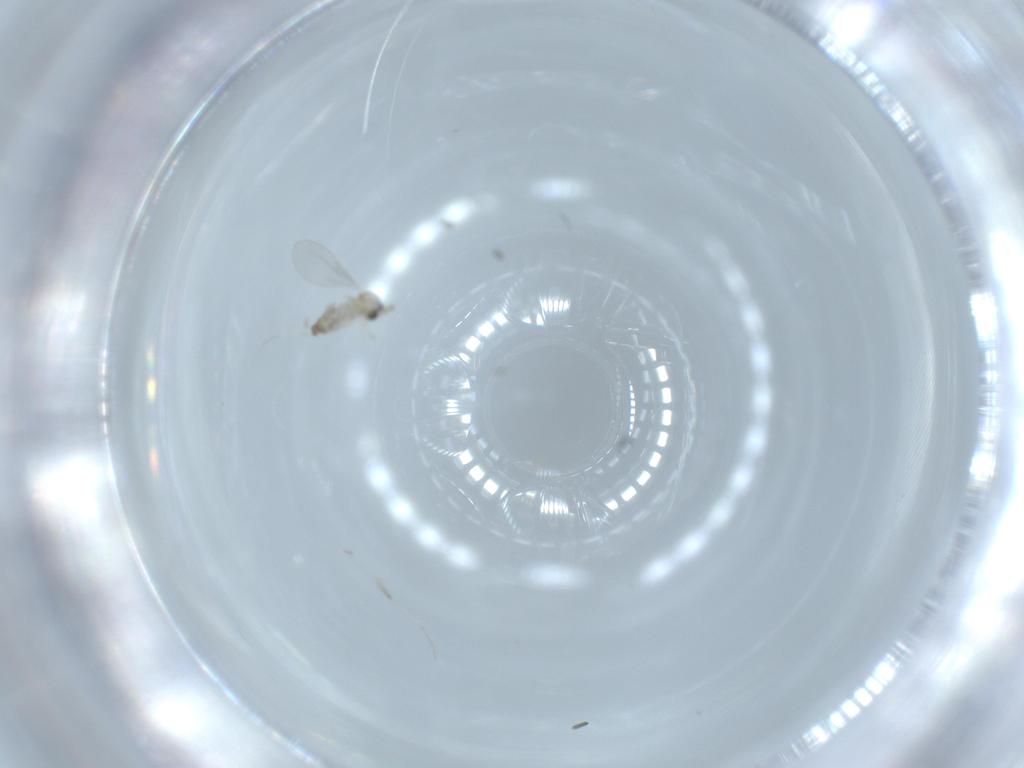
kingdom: Animalia
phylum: Arthropoda
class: Insecta
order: Diptera
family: Cecidomyiidae
